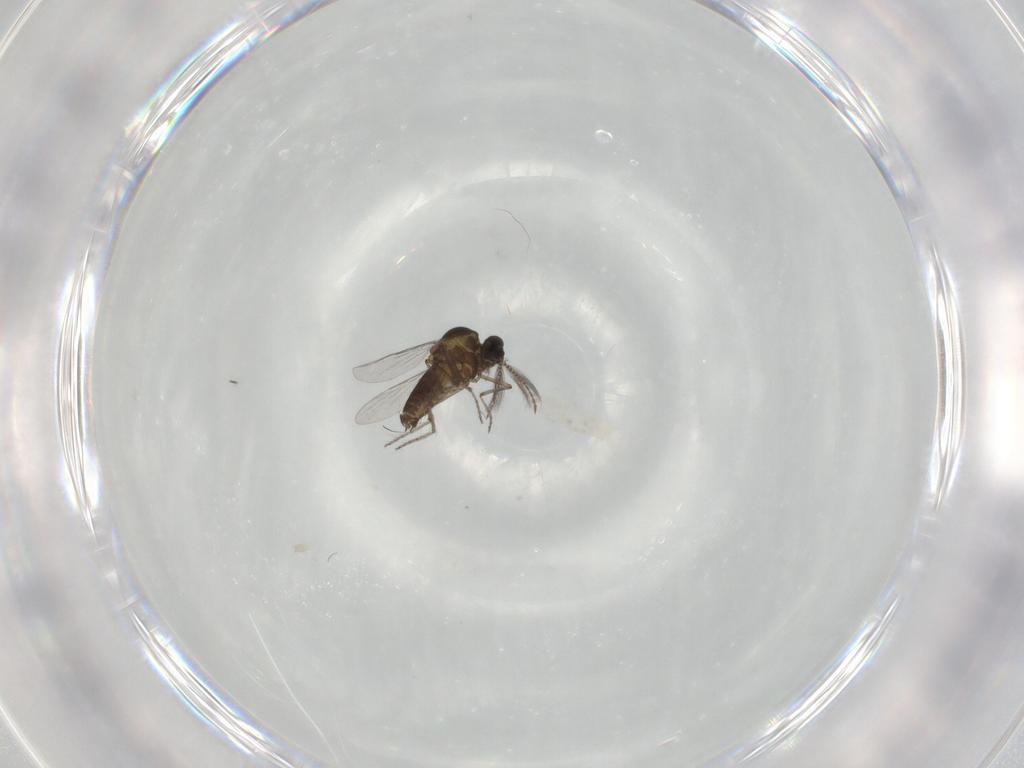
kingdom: Animalia
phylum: Arthropoda
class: Insecta
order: Diptera
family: Ceratopogonidae
